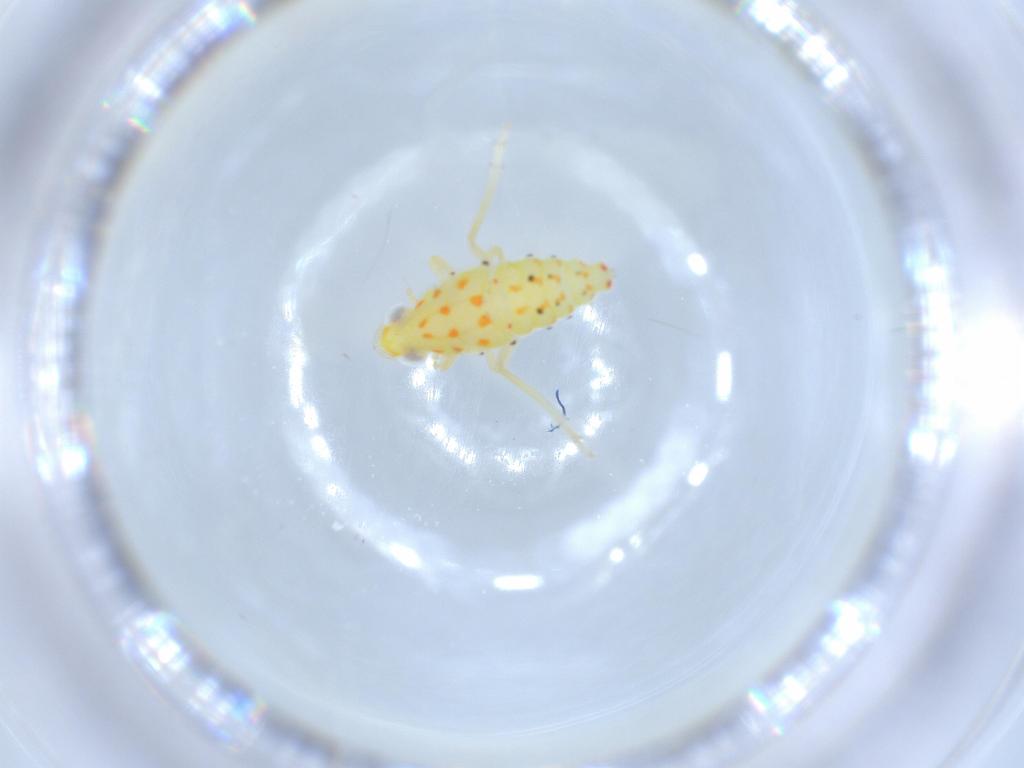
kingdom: Animalia
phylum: Arthropoda
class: Insecta
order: Hemiptera
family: Tropiduchidae
